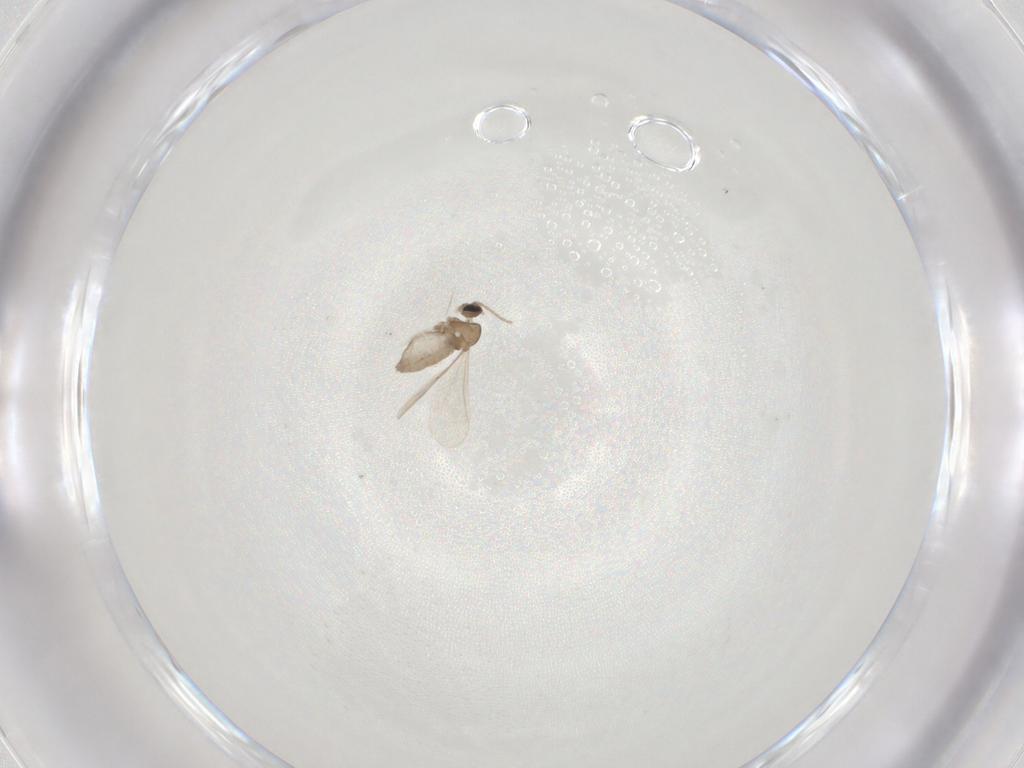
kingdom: Animalia
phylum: Arthropoda
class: Insecta
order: Diptera
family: Cecidomyiidae
